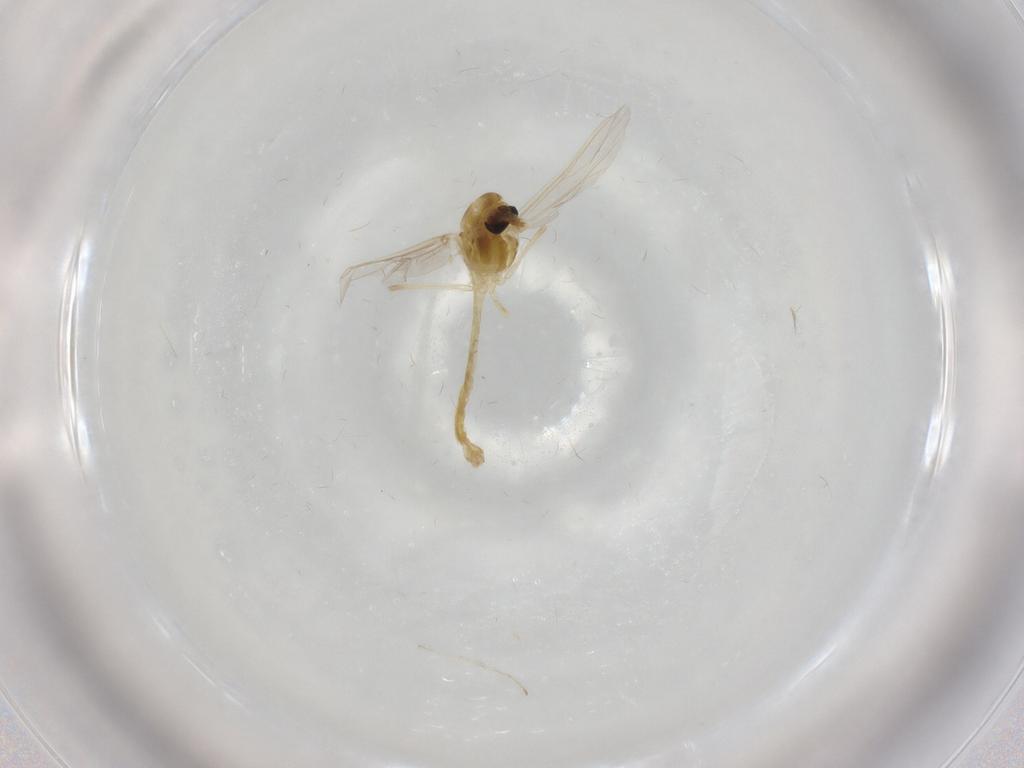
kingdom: Animalia
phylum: Arthropoda
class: Insecta
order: Diptera
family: Chironomidae
